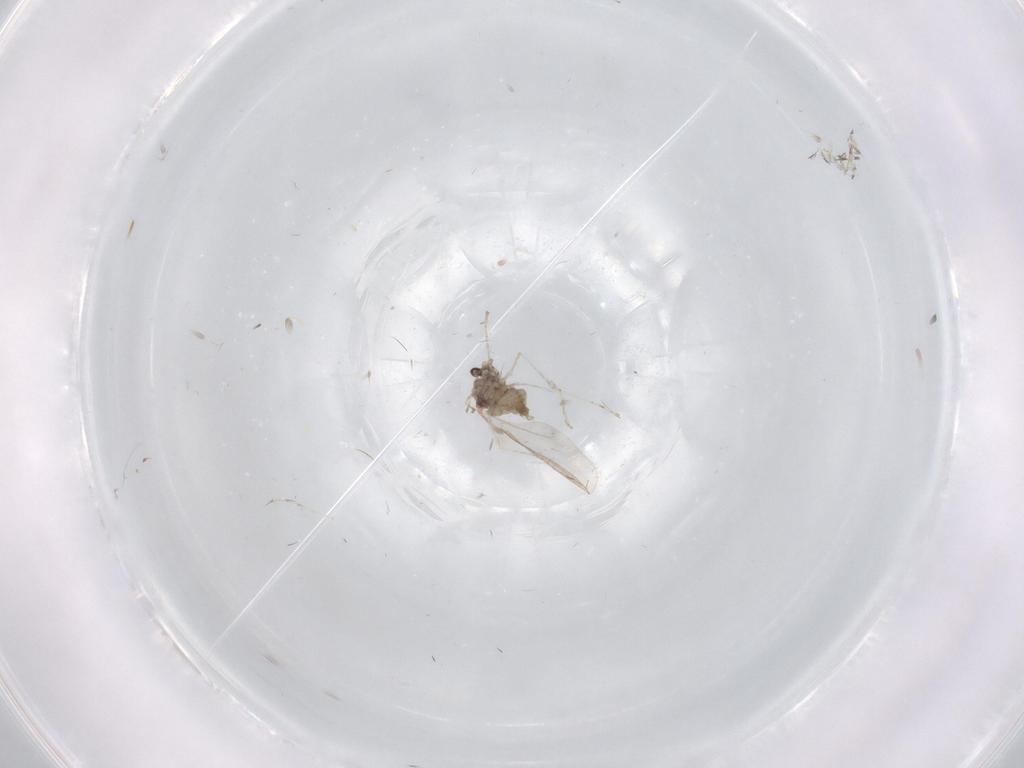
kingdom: Animalia
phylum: Arthropoda
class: Insecta
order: Diptera
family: Cecidomyiidae
